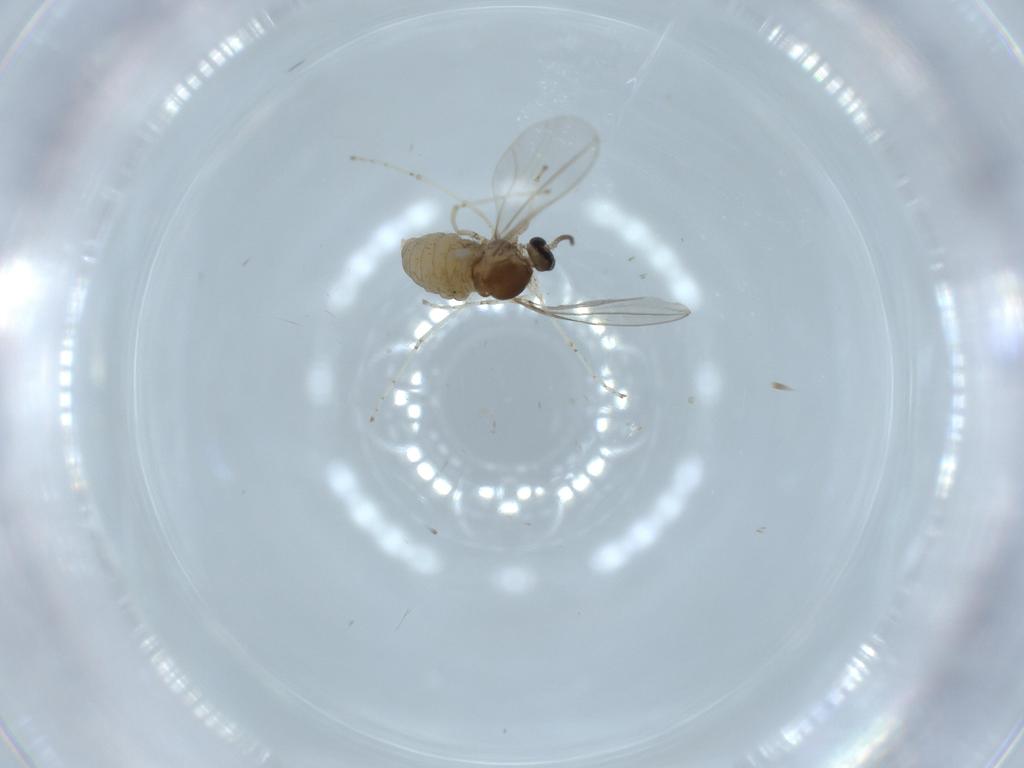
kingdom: Animalia
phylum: Arthropoda
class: Insecta
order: Diptera
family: Cecidomyiidae
